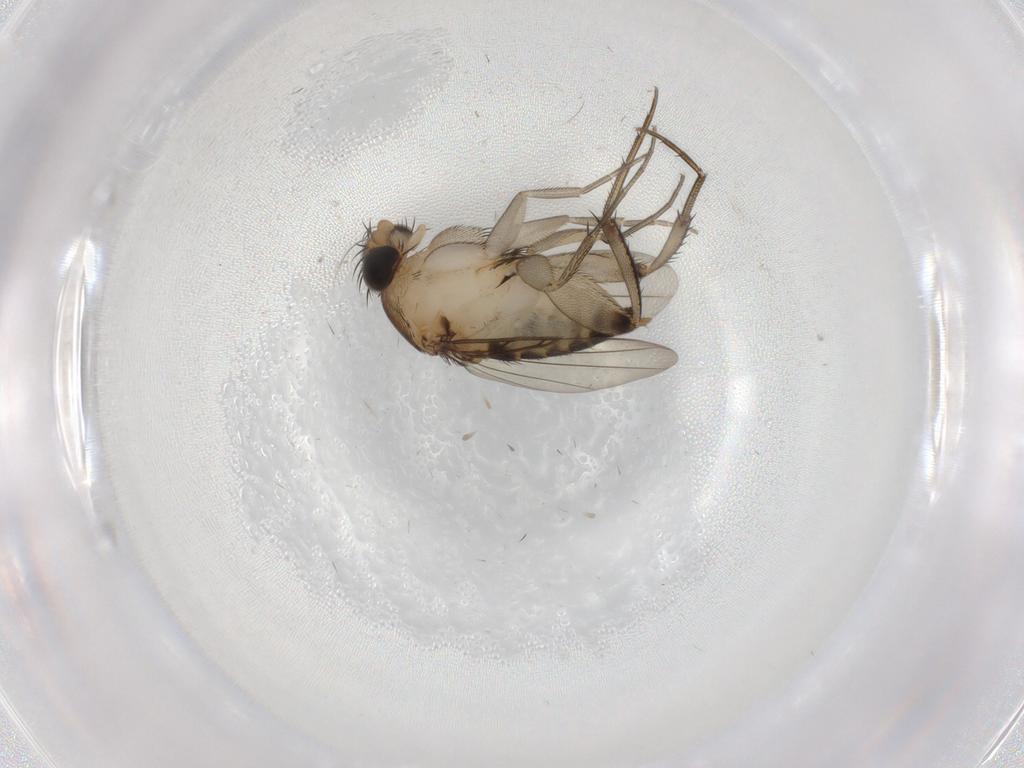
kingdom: Animalia
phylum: Arthropoda
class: Insecta
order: Diptera
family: Phoridae
